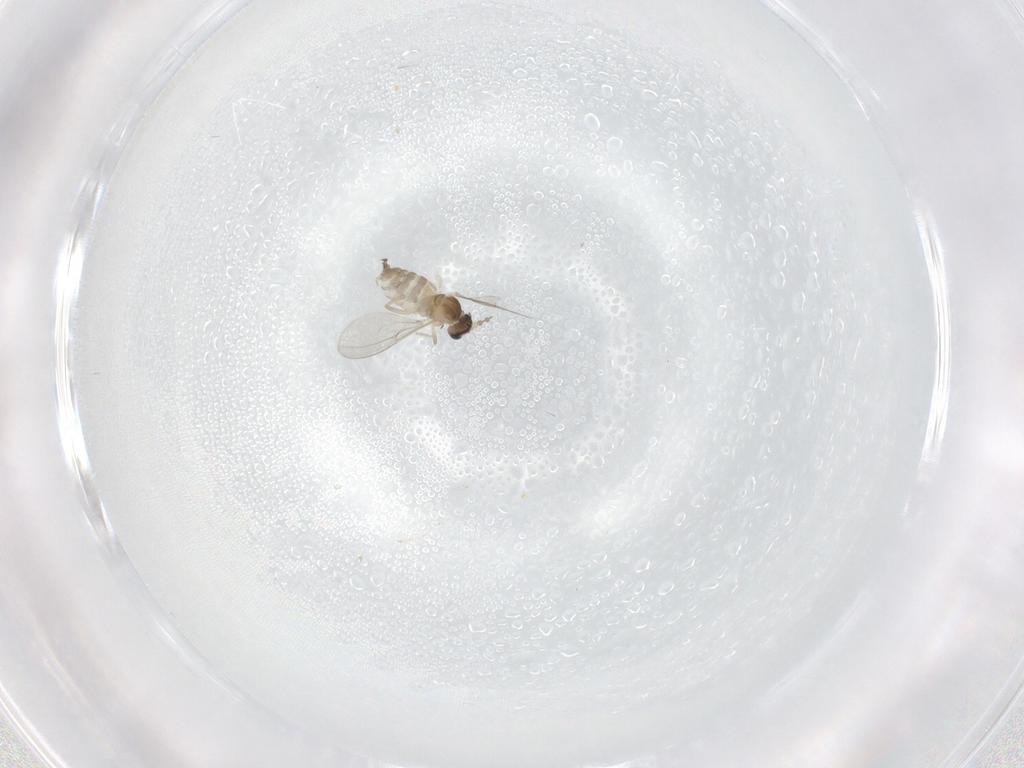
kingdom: Animalia
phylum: Arthropoda
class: Insecta
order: Diptera
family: Cecidomyiidae
